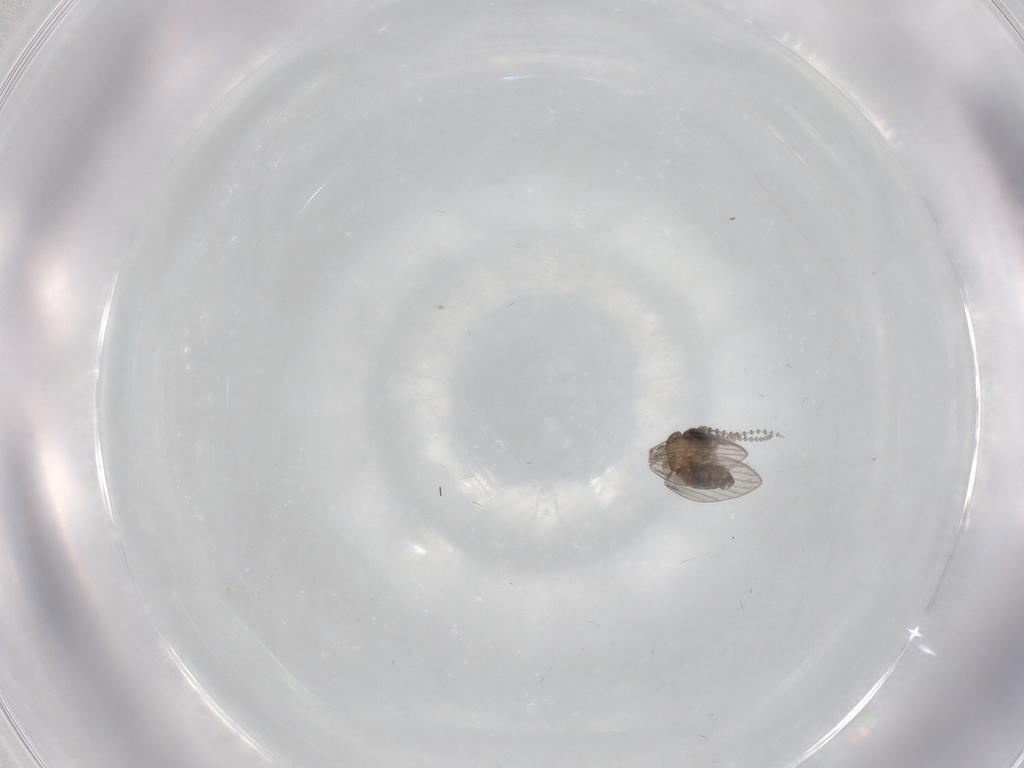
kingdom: Animalia
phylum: Arthropoda
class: Insecta
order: Diptera
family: Psychodidae
